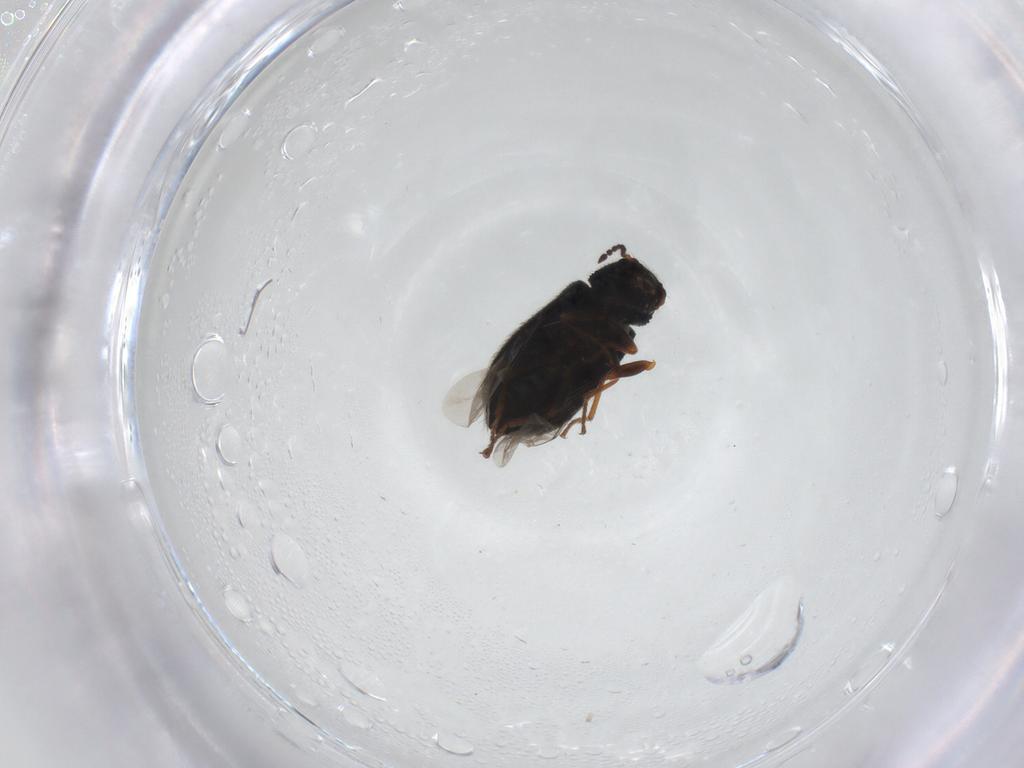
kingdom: Animalia
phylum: Arthropoda
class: Insecta
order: Coleoptera
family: Melyridae
